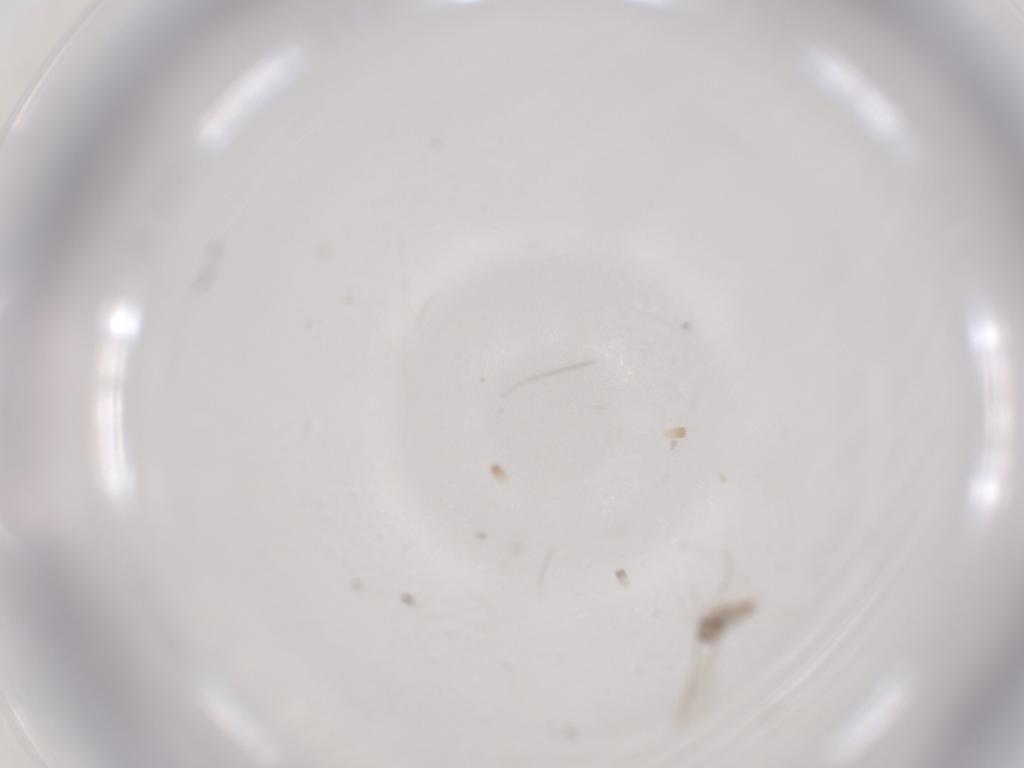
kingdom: Animalia
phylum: Arthropoda
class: Insecta
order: Diptera
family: Cecidomyiidae
